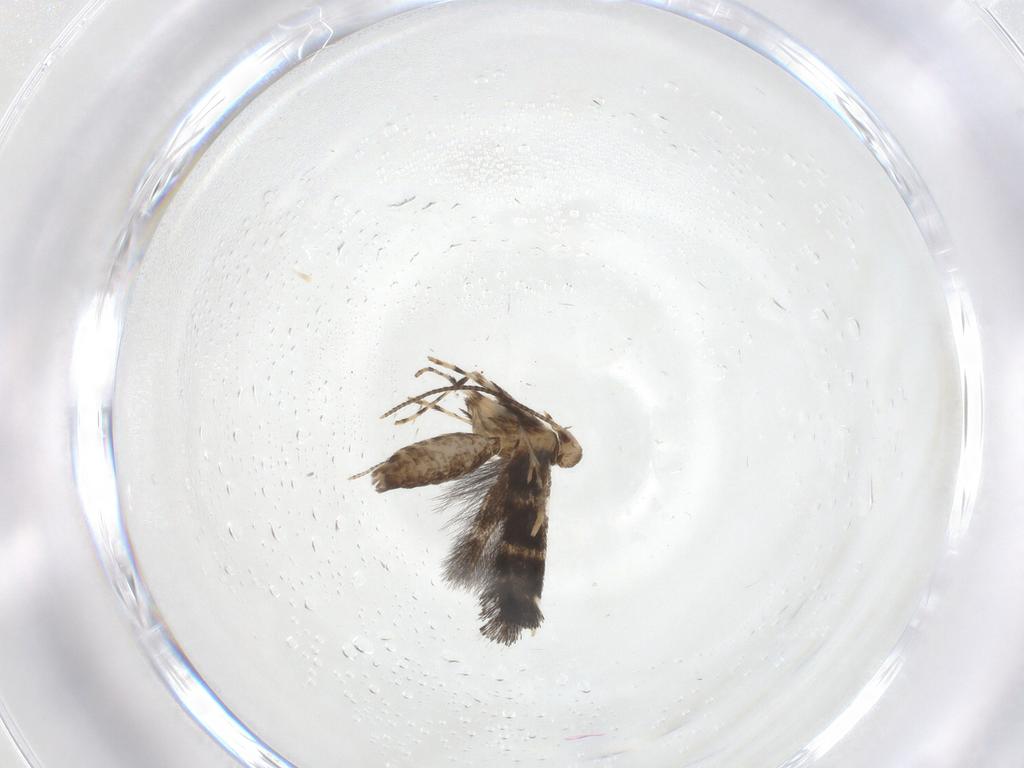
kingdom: Animalia
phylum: Arthropoda
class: Insecta
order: Lepidoptera
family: Gracillariidae
